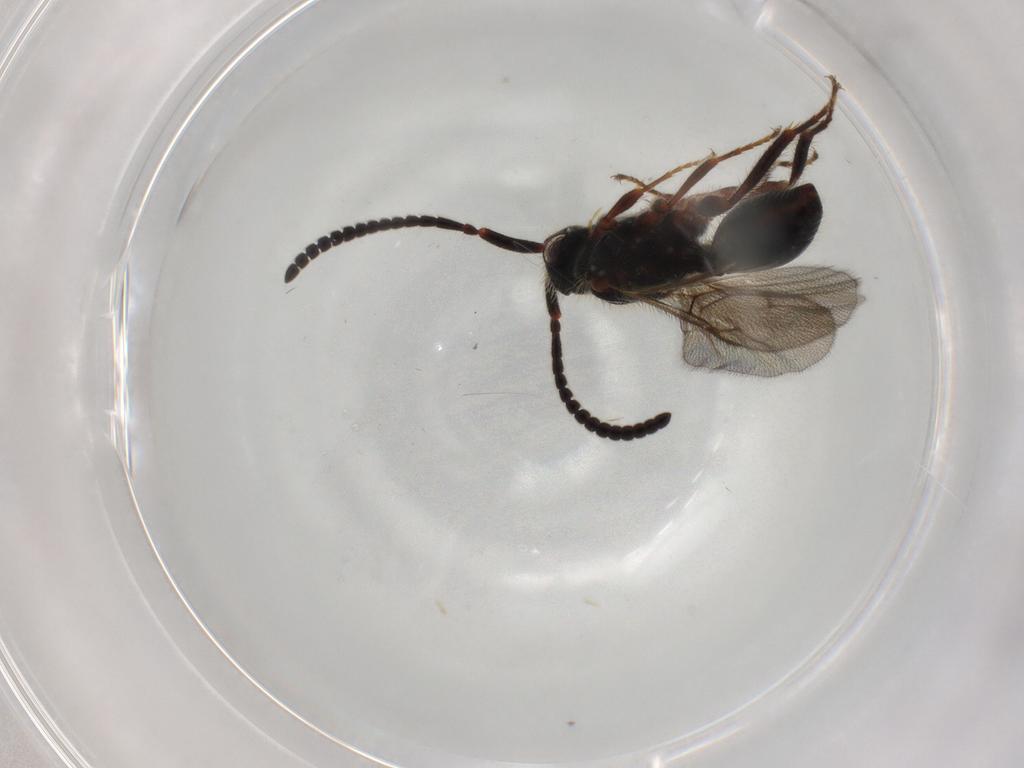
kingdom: Animalia
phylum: Arthropoda
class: Insecta
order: Hymenoptera
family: Diapriidae
